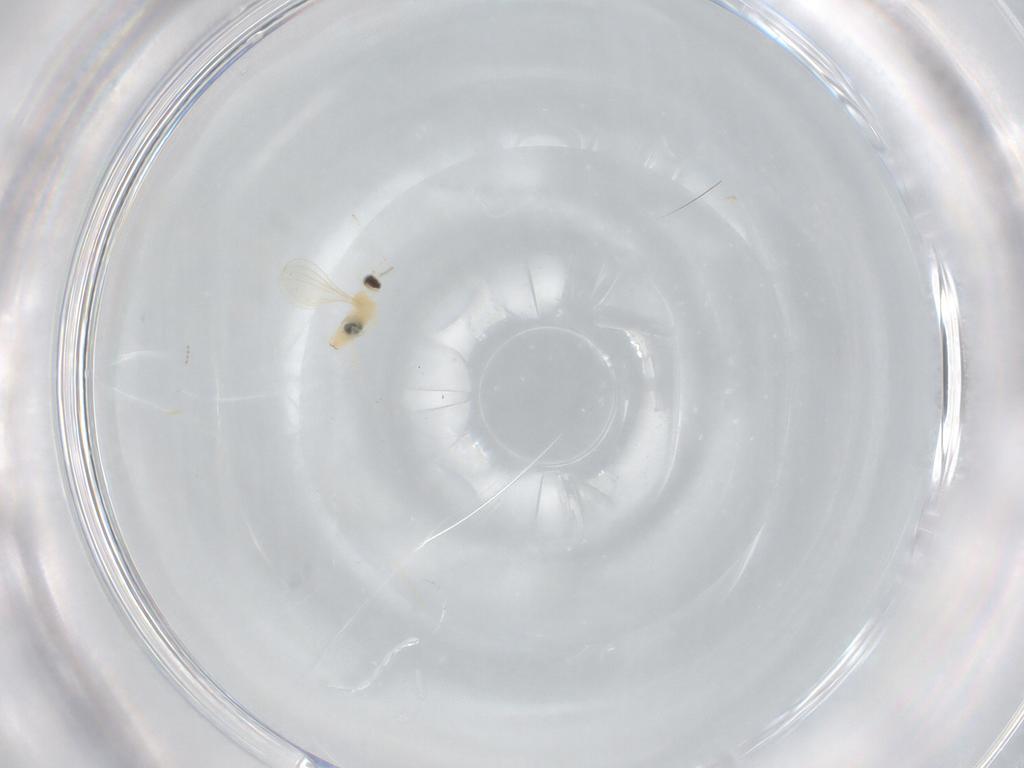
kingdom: Animalia
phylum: Arthropoda
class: Insecta
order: Diptera
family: Cecidomyiidae
